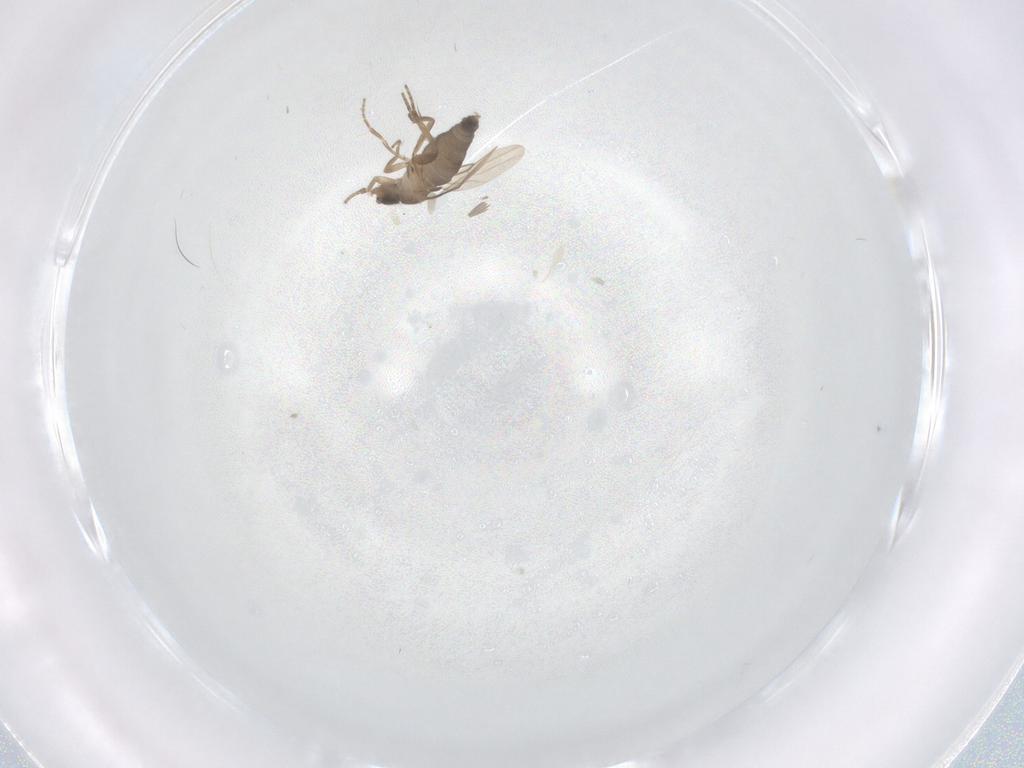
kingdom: Animalia
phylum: Arthropoda
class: Insecta
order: Diptera
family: Phoridae
